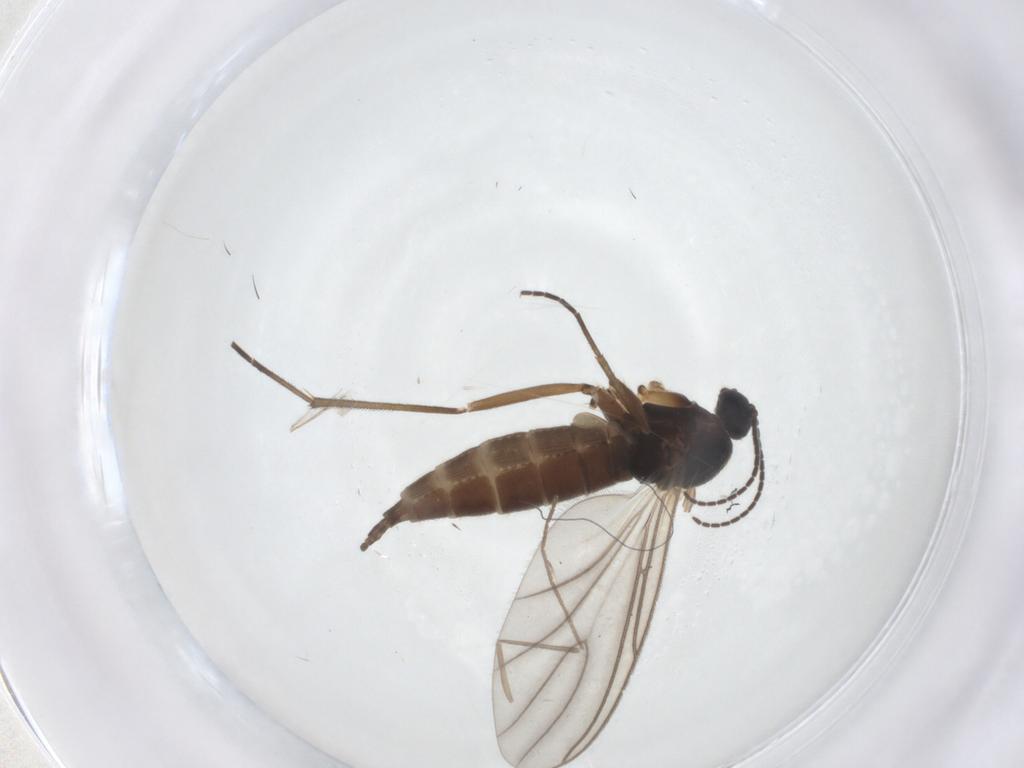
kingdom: Animalia
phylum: Arthropoda
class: Insecta
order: Diptera
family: Sciaridae
